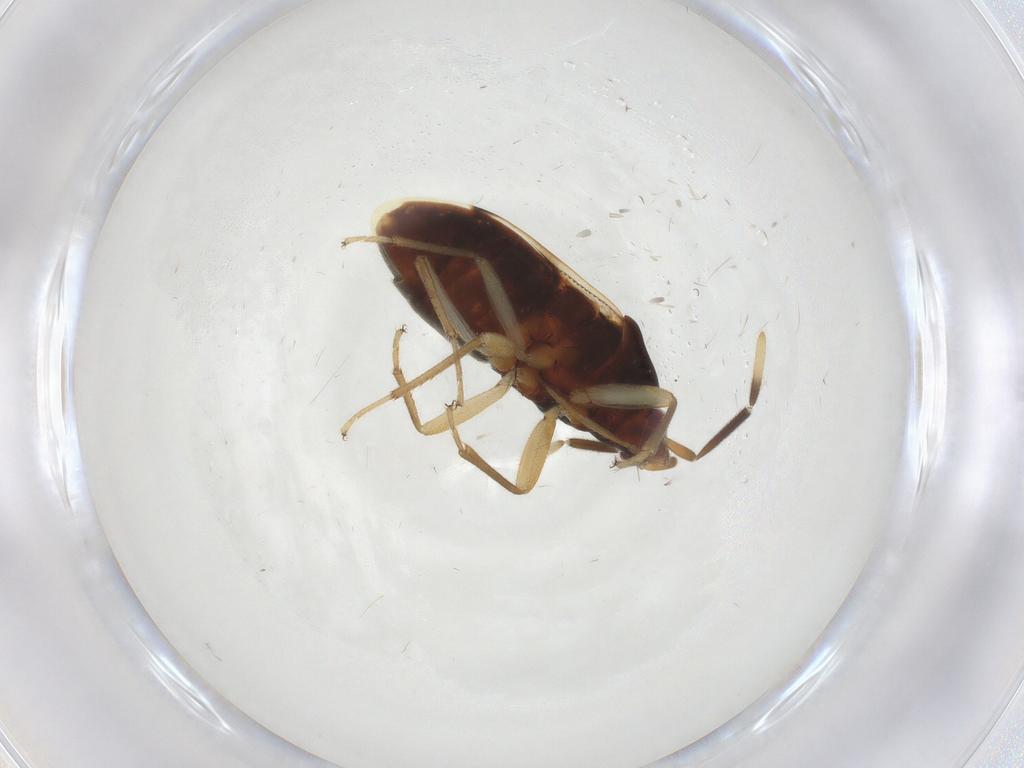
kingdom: Animalia
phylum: Arthropoda
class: Insecta
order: Hemiptera
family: Rhyparochromidae
